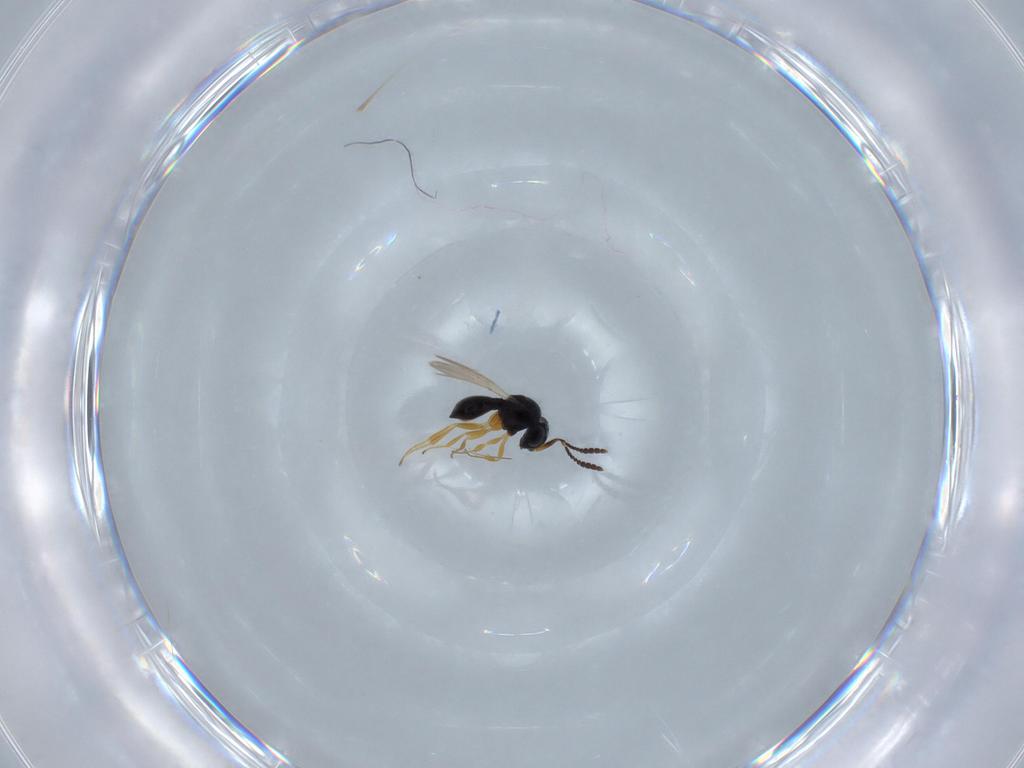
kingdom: Animalia
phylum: Arthropoda
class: Insecta
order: Hymenoptera
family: Scelionidae
